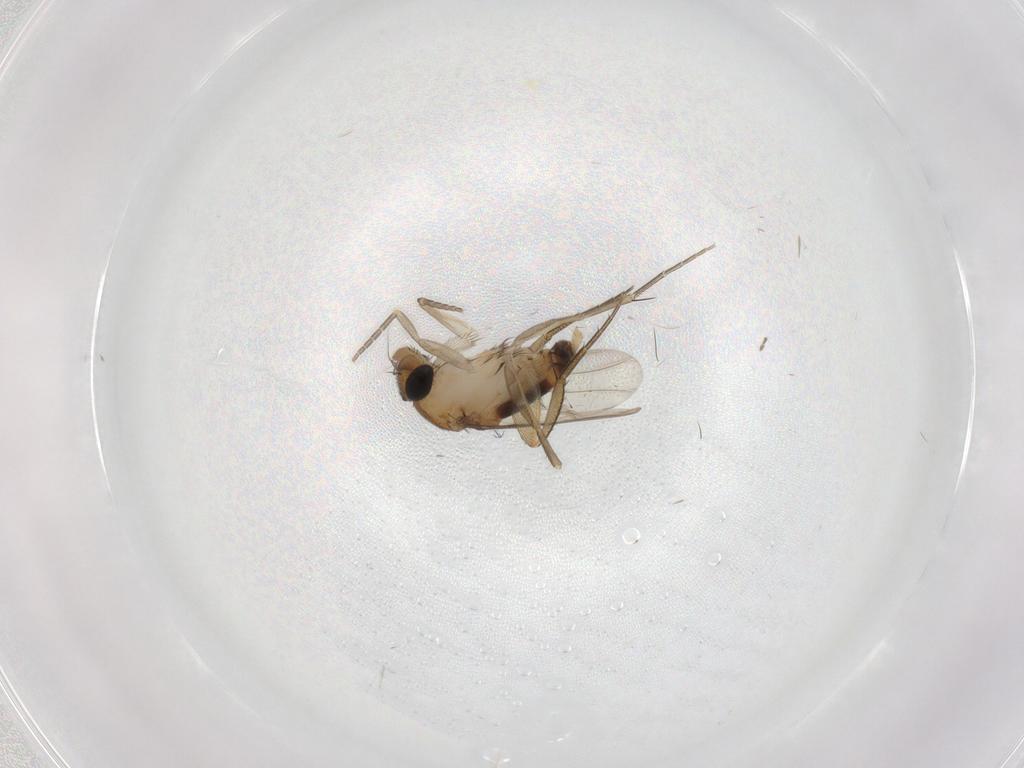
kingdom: Animalia
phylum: Arthropoda
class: Insecta
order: Diptera
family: Phoridae
